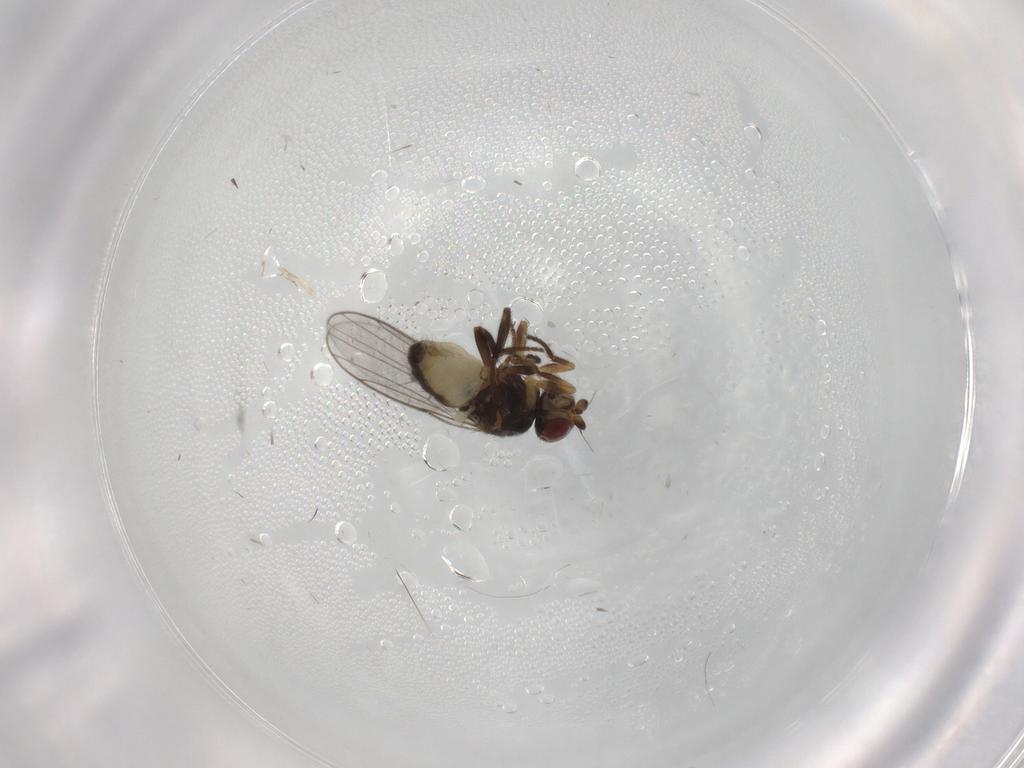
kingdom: Animalia
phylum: Arthropoda
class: Insecta
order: Diptera
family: Chloropidae
